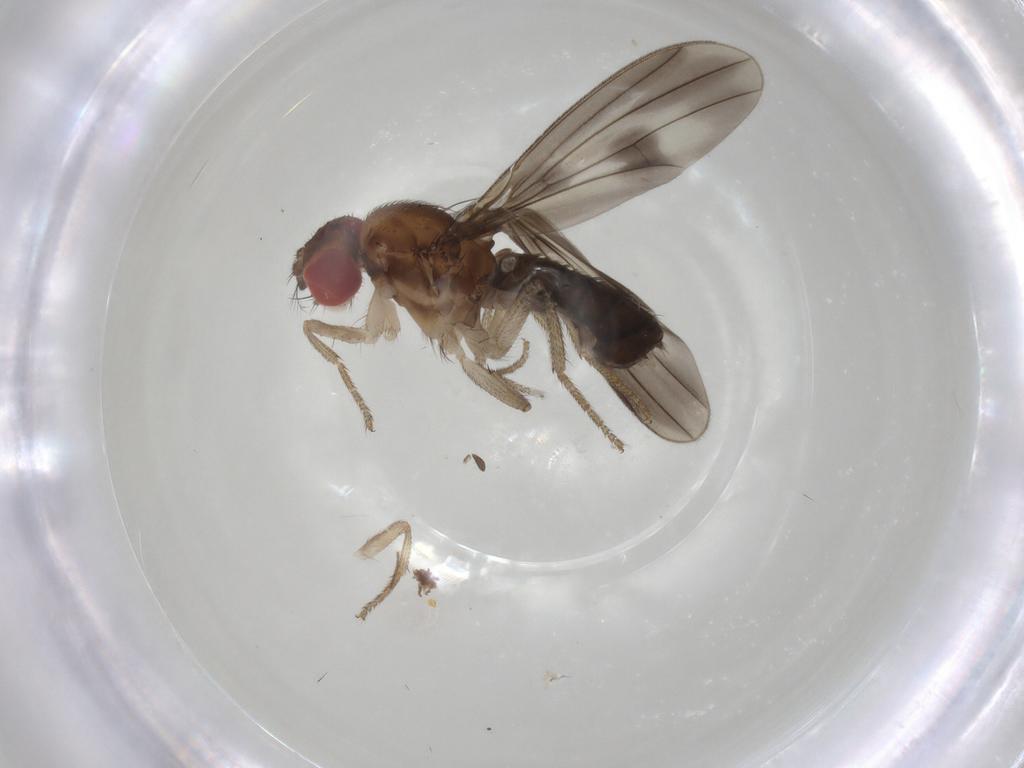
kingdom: Animalia
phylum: Arthropoda
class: Insecta
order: Diptera
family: Drosophilidae
